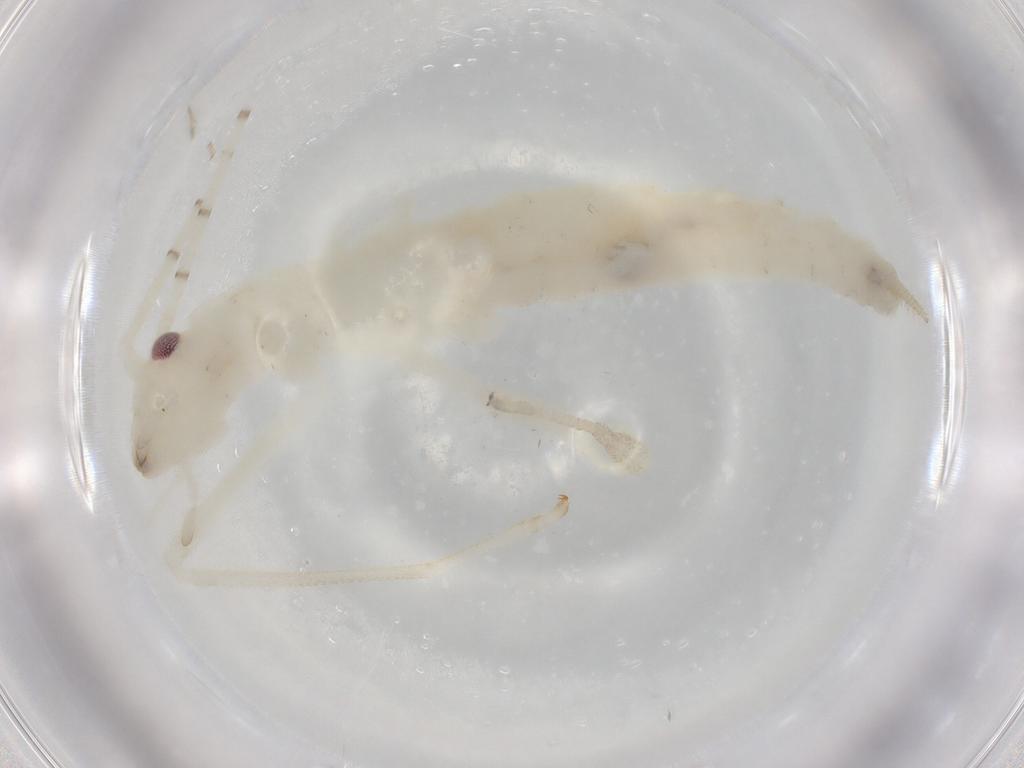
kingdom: Animalia
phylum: Arthropoda
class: Insecta
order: Orthoptera
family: Oecanthidae
